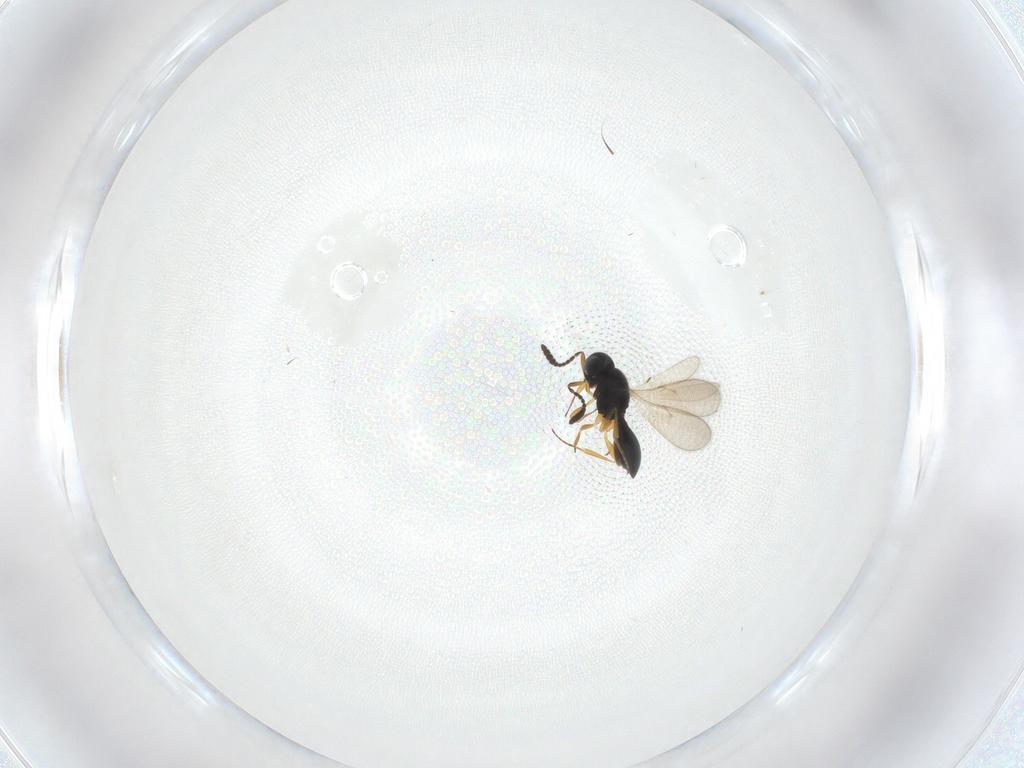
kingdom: Animalia
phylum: Arthropoda
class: Insecta
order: Hymenoptera
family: Scelionidae
